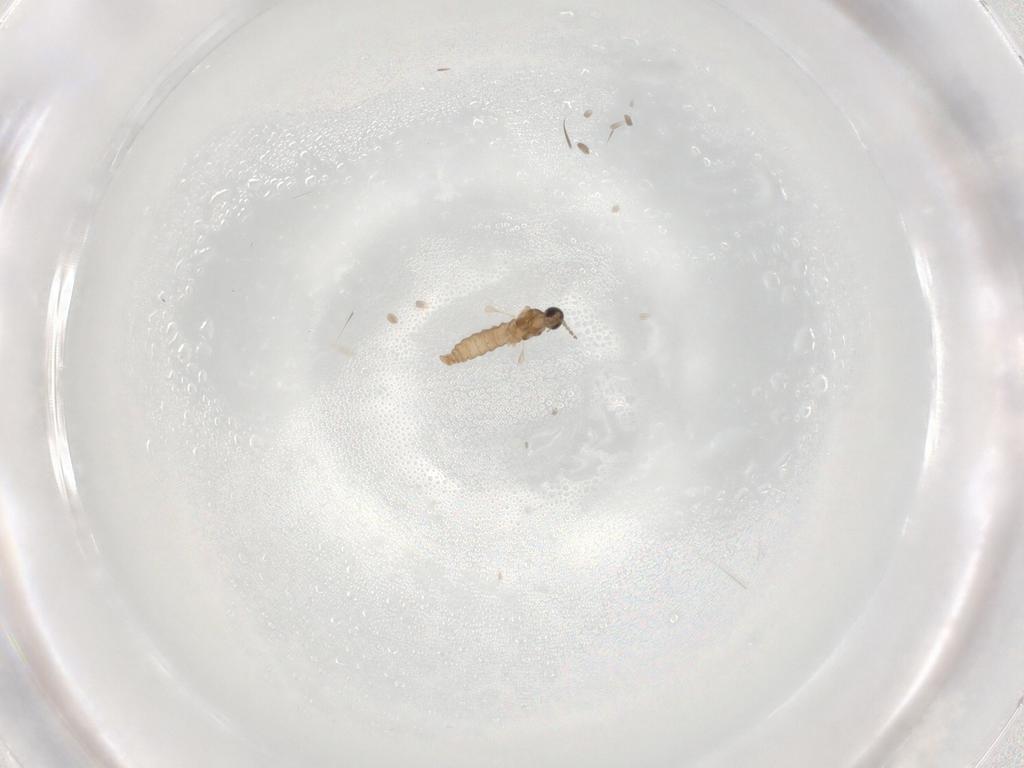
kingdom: Animalia
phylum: Arthropoda
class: Insecta
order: Diptera
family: Cecidomyiidae
